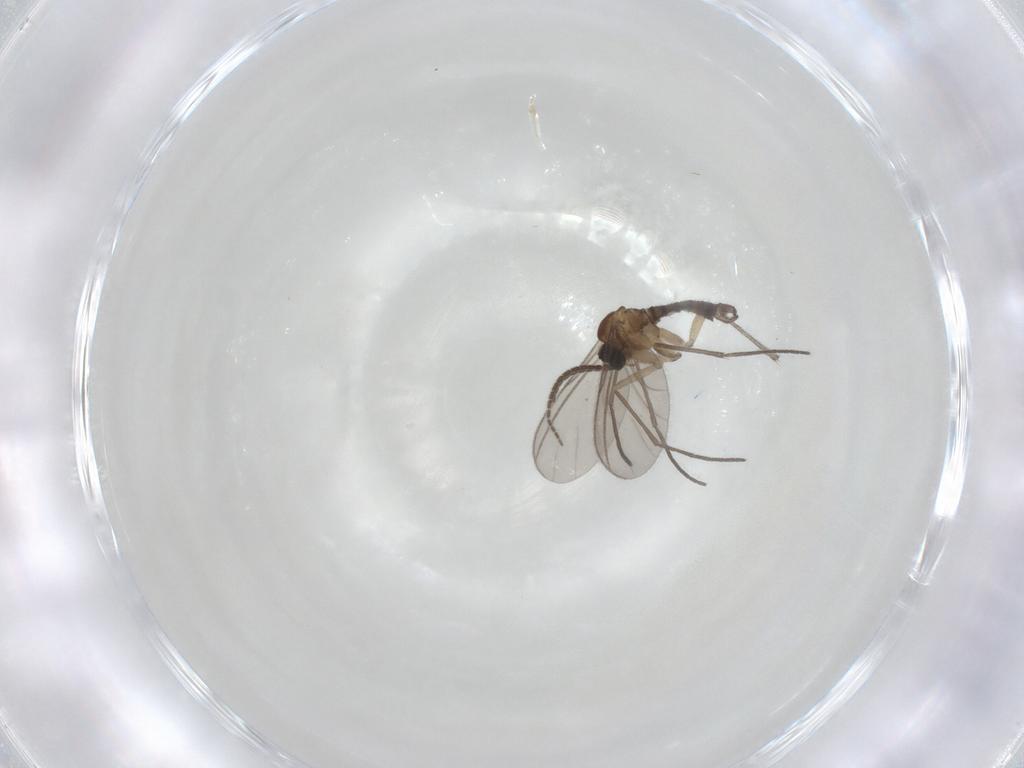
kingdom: Animalia
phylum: Arthropoda
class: Insecta
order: Diptera
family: Sciaridae
